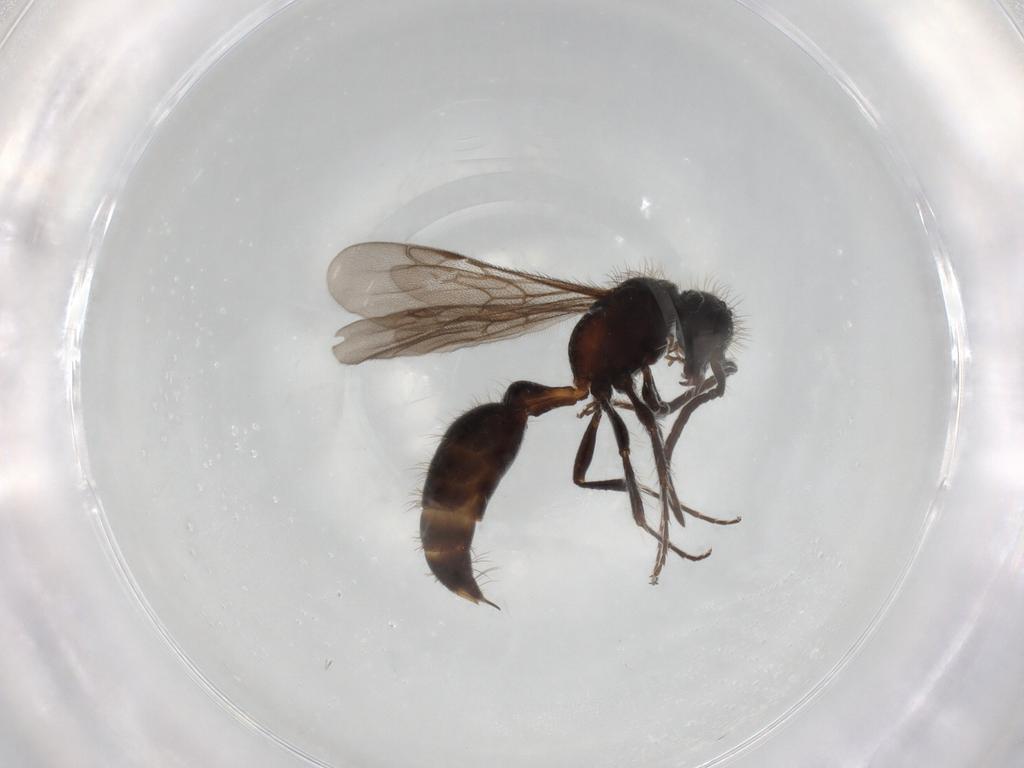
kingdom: Animalia
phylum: Arthropoda
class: Insecta
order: Hymenoptera
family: Mutillidae
